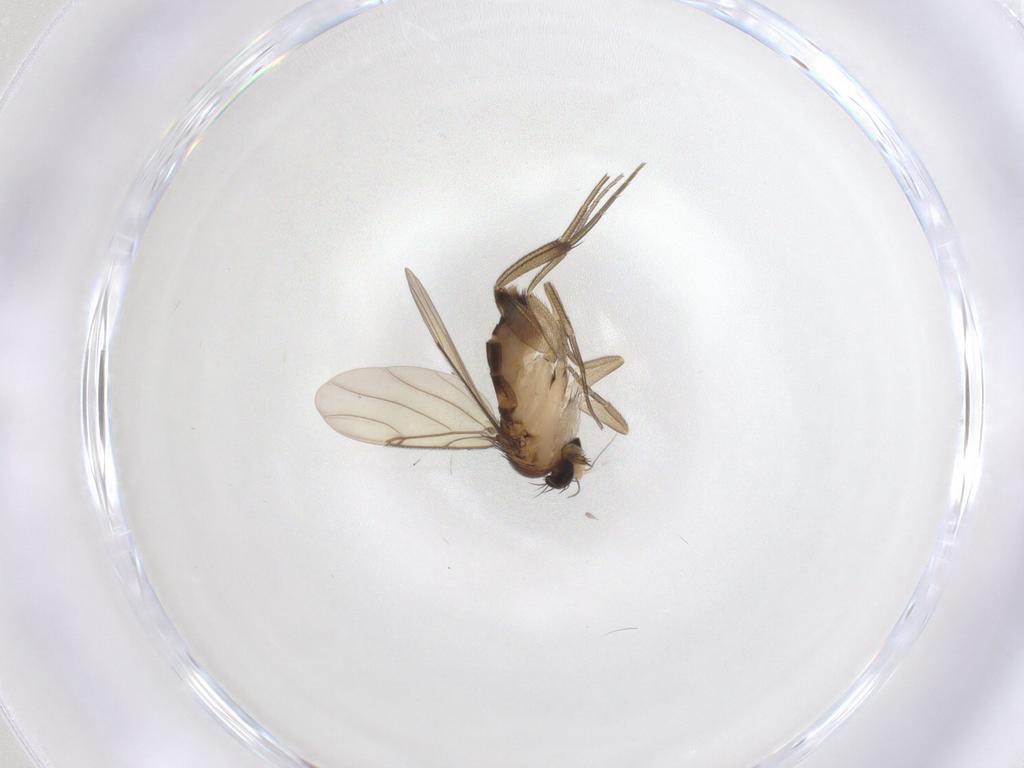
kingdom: Animalia
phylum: Arthropoda
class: Insecta
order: Diptera
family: Phoridae
